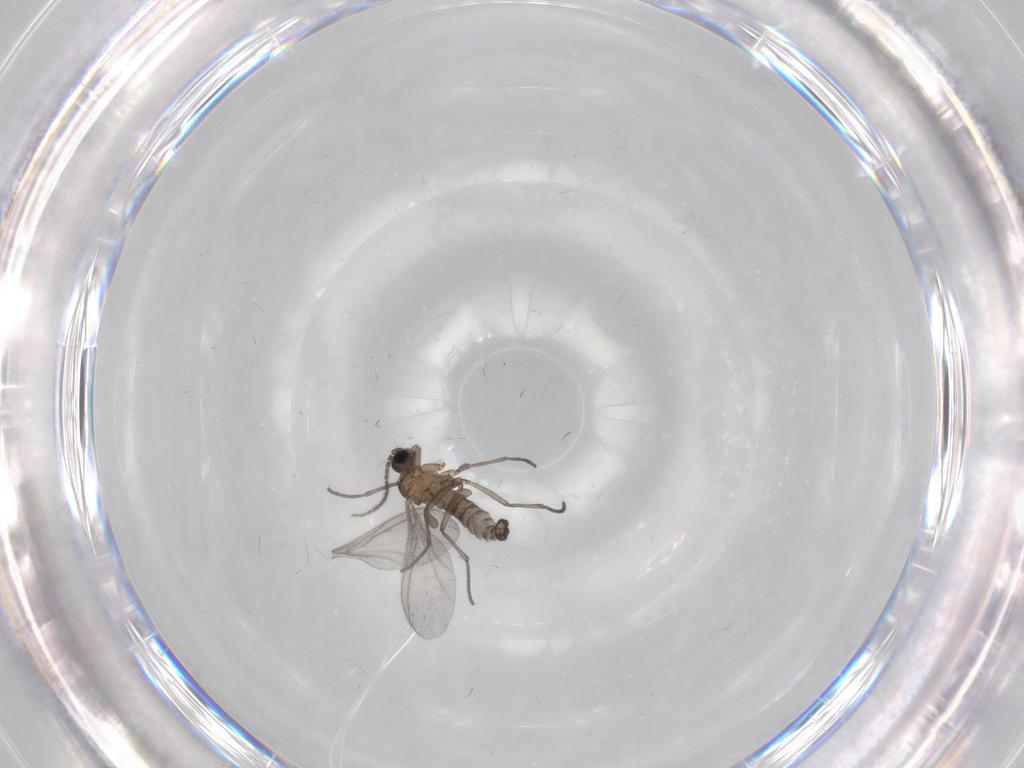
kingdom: Animalia
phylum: Arthropoda
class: Insecta
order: Diptera
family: Sciaridae
